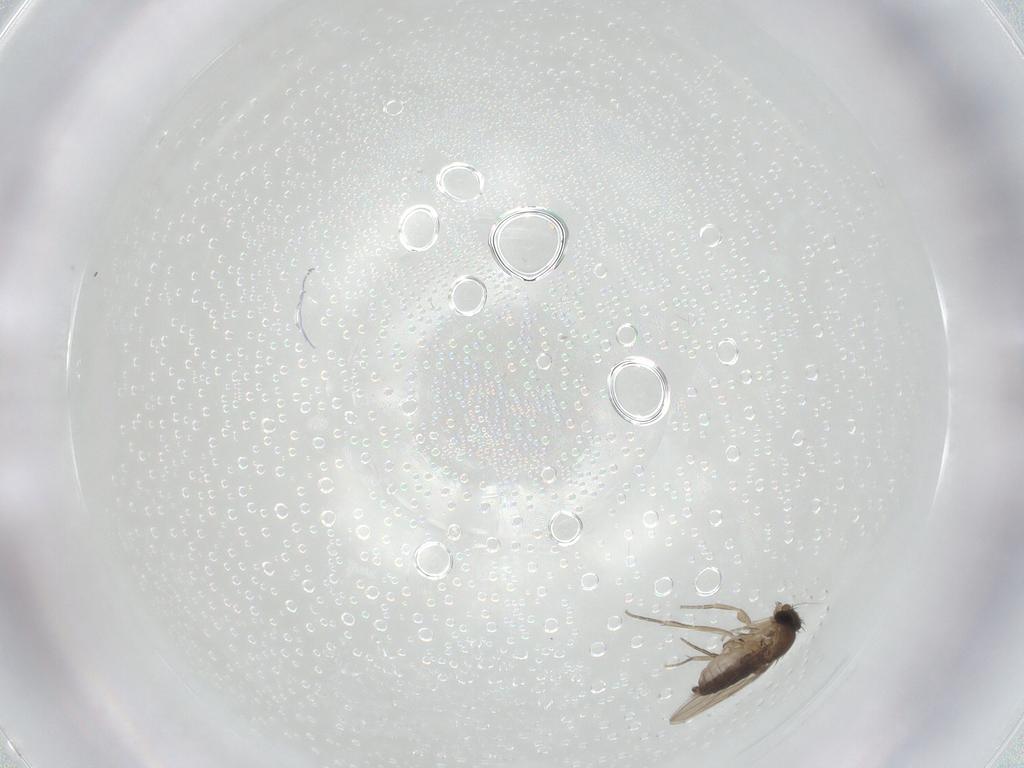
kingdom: Animalia
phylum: Arthropoda
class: Insecta
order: Diptera
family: Phoridae
